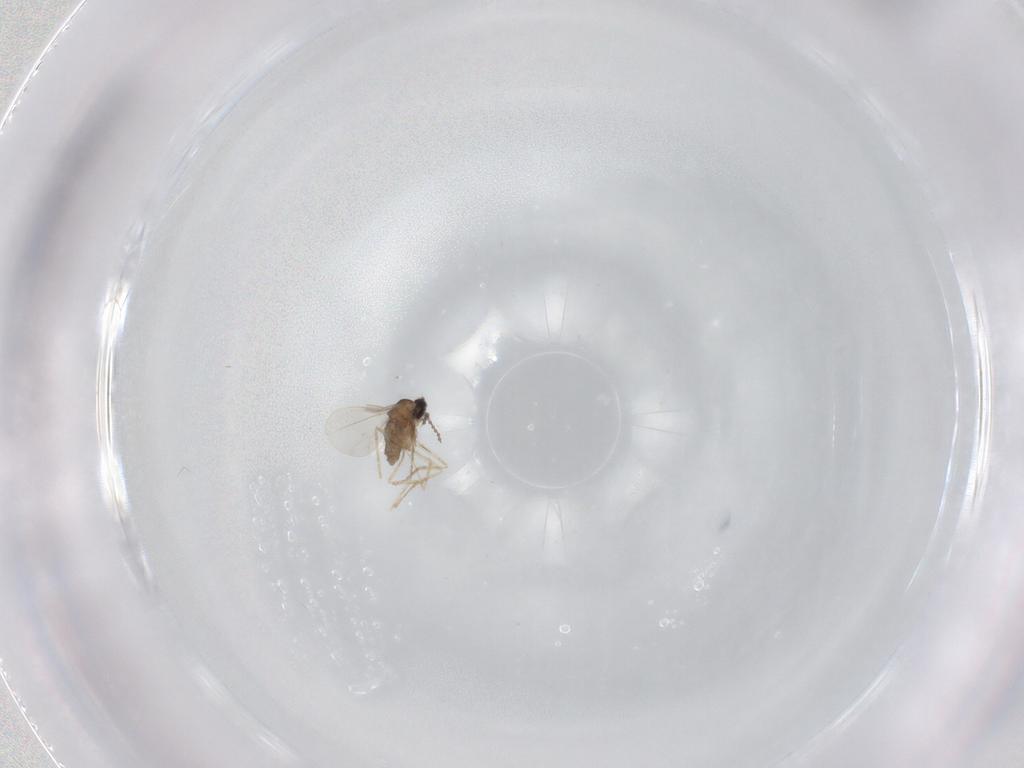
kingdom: Animalia
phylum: Arthropoda
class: Insecta
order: Diptera
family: Cecidomyiidae
